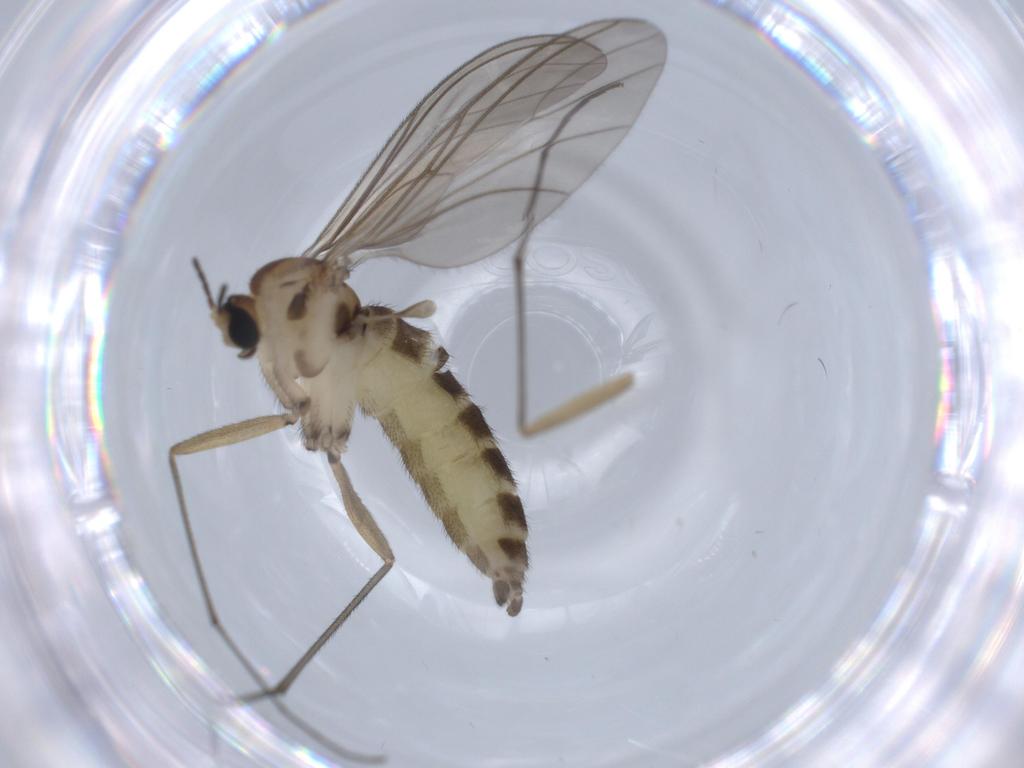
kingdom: Animalia
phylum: Arthropoda
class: Insecta
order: Diptera
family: Sciaridae
